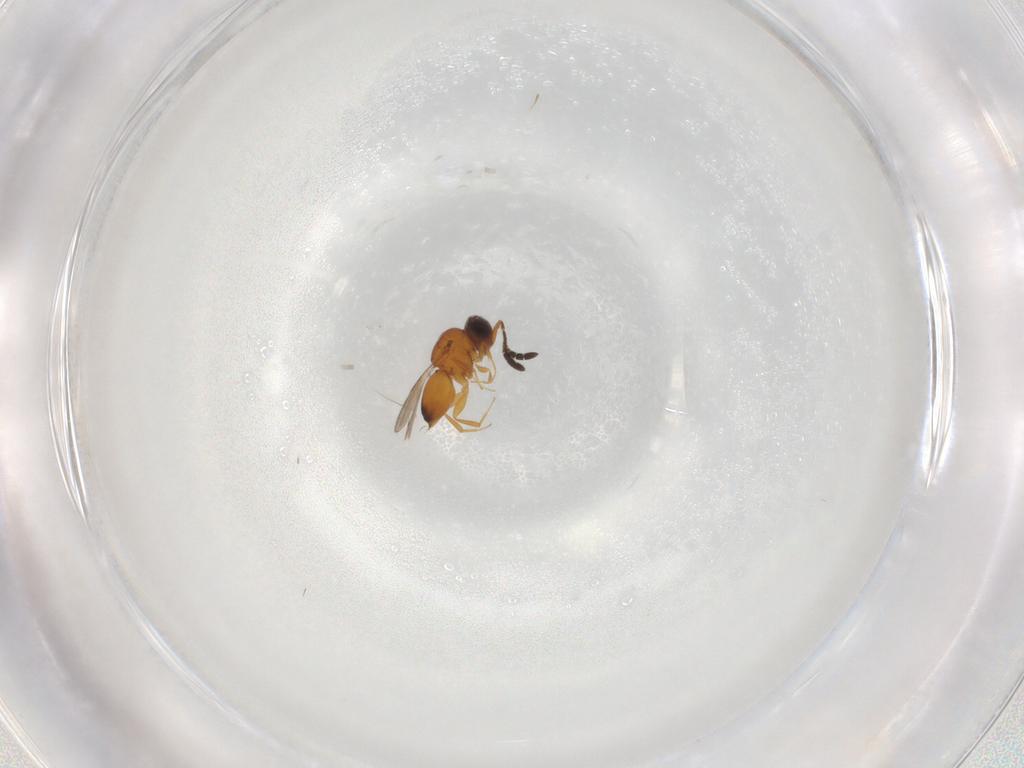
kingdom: Animalia
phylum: Arthropoda
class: Insecta
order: Hymenoptera
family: Ceraphronidae
